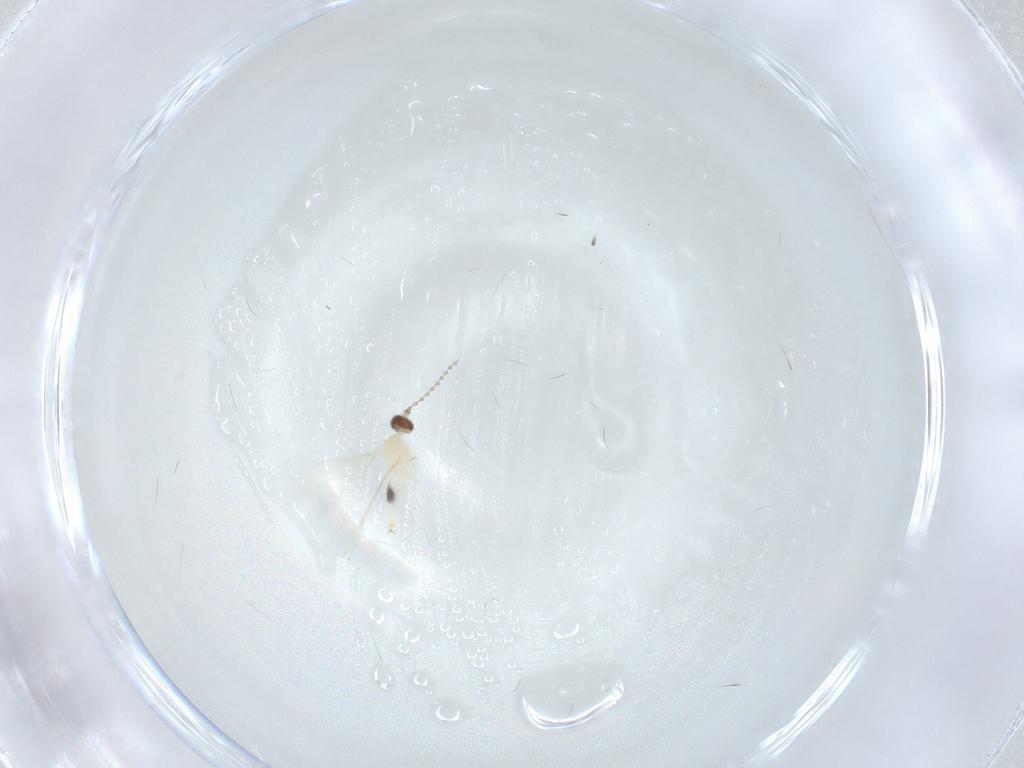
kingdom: Animalia
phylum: Arthropoda
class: Insecta
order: Diptera
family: Cecidomyiidae
